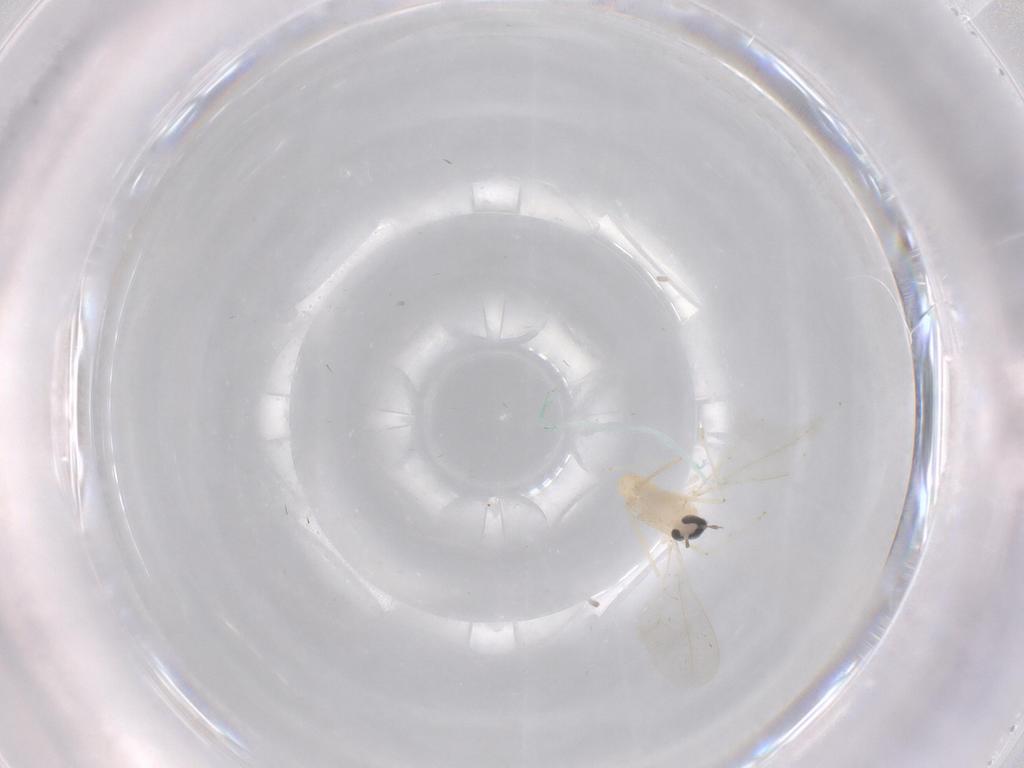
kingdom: Animalia
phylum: Arthropoda
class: Insecta
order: Diptera
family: Cecidomyiidae
